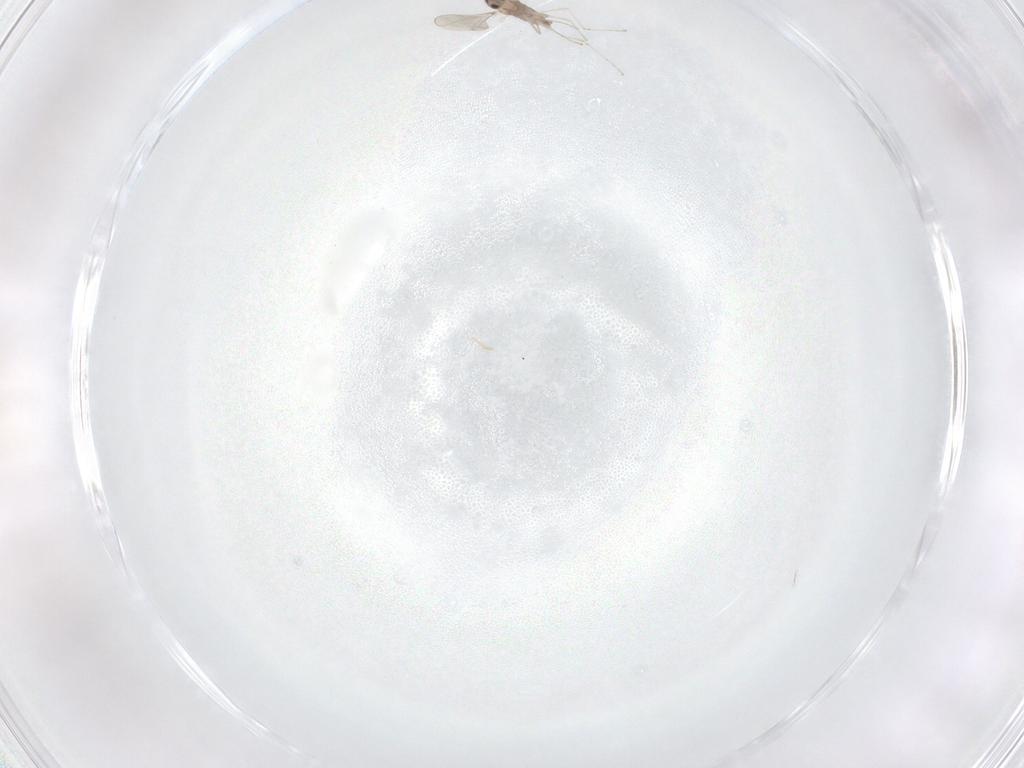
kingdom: Animalia
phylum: Arthropoda
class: Insecta
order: Diptera
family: Cecidomyiidae
